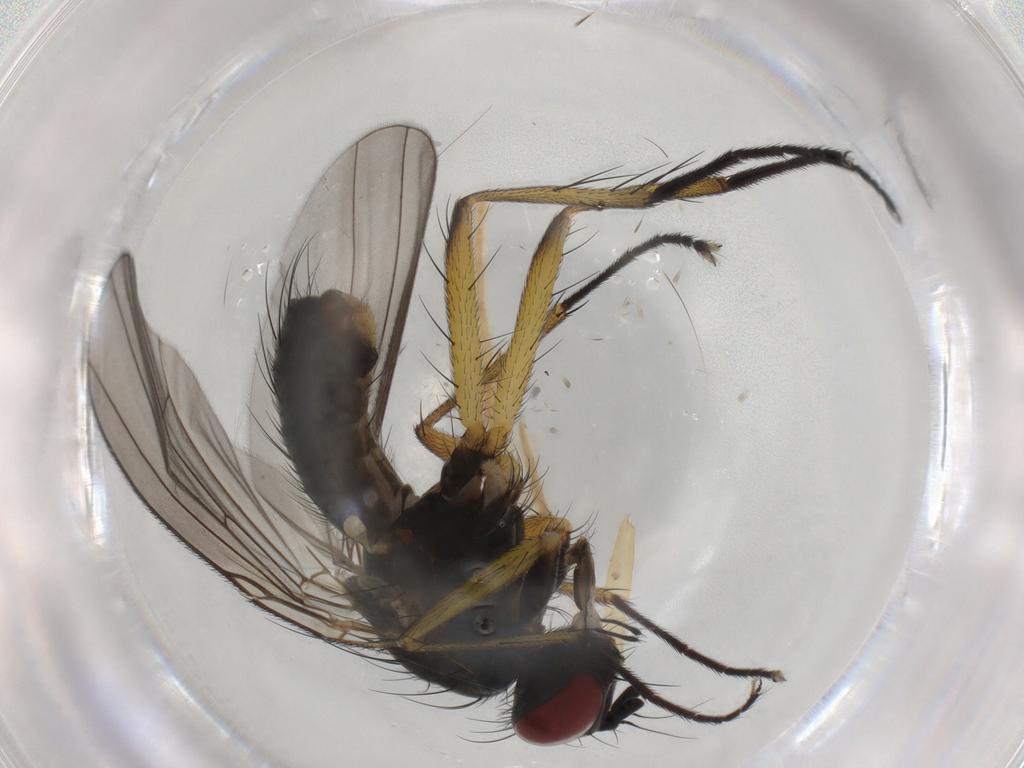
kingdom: Animalia
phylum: Arthropoda
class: Insecta
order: Diptera
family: Muscidae
